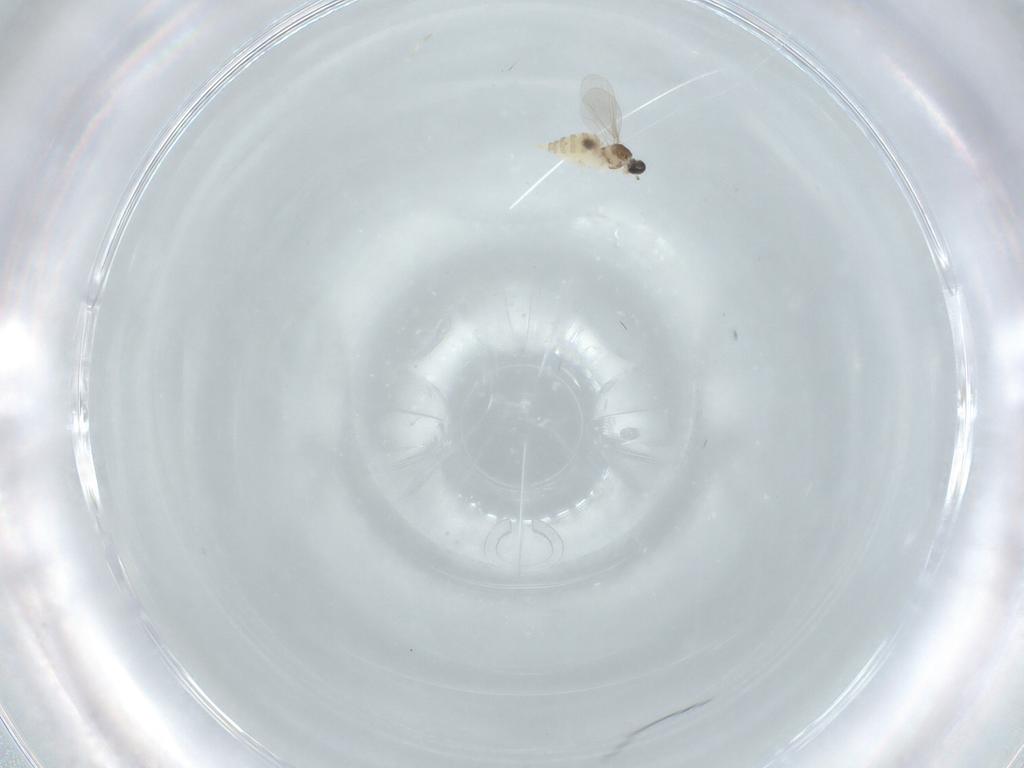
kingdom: Animalia
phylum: Arthropoda
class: Insecta
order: Diptera
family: Cecidomyiidae
